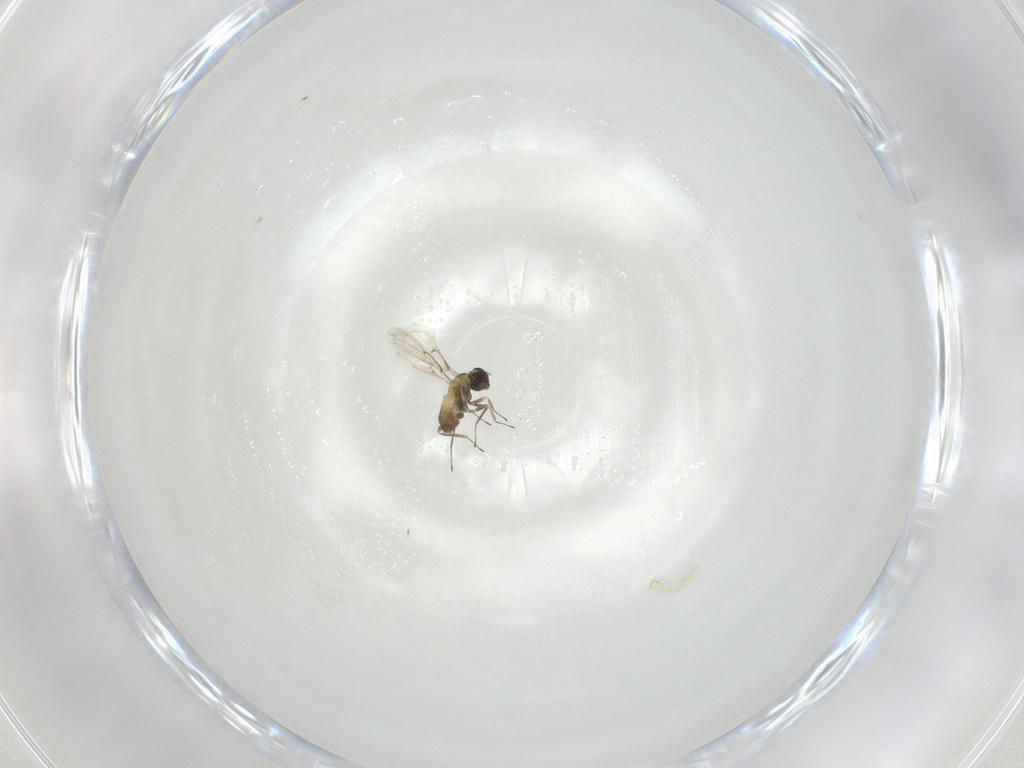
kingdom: Animalia
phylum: Arthropoda
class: Insecta
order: Hymenoptera
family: Trichogrammatidae
